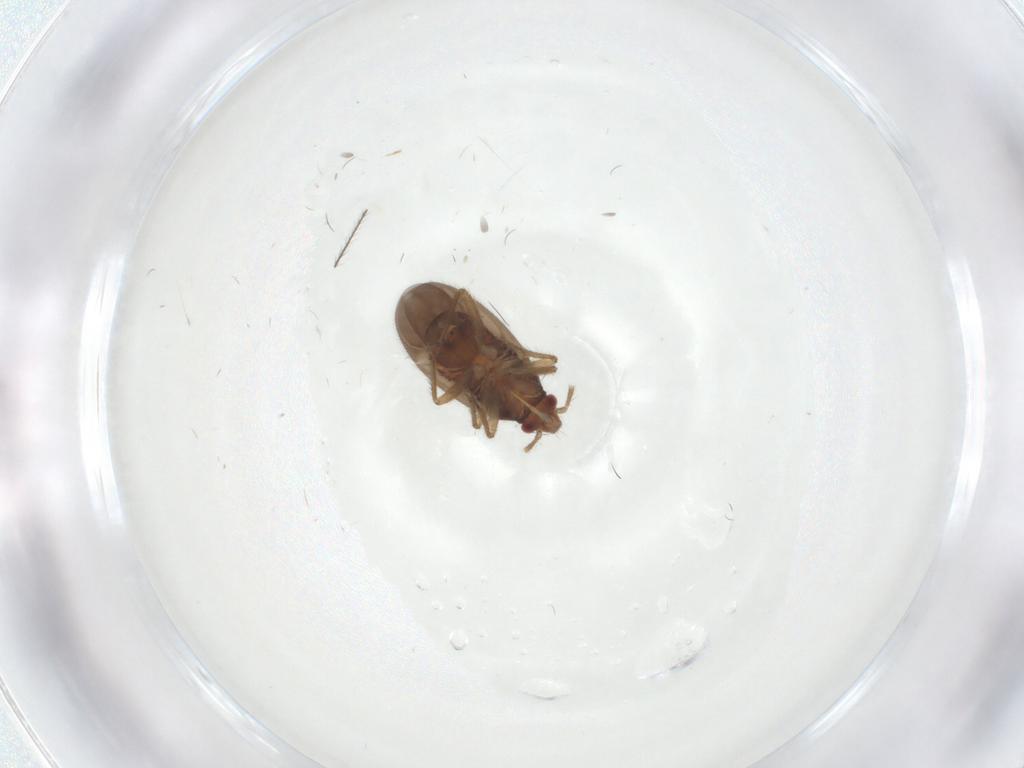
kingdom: Animalia
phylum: Arthropoda
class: Insecta
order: Hemiptera
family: Ceratocombidae
